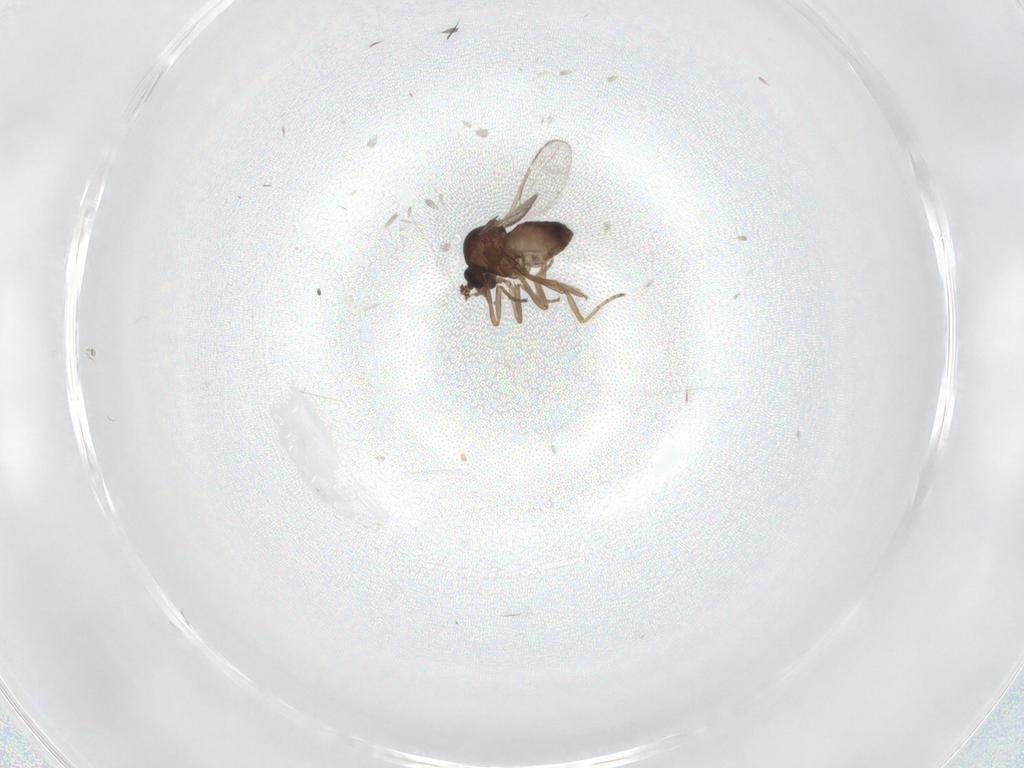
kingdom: Animalia
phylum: Arthropoda
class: Insecta
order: Diptera
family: Ceratopogonidae
